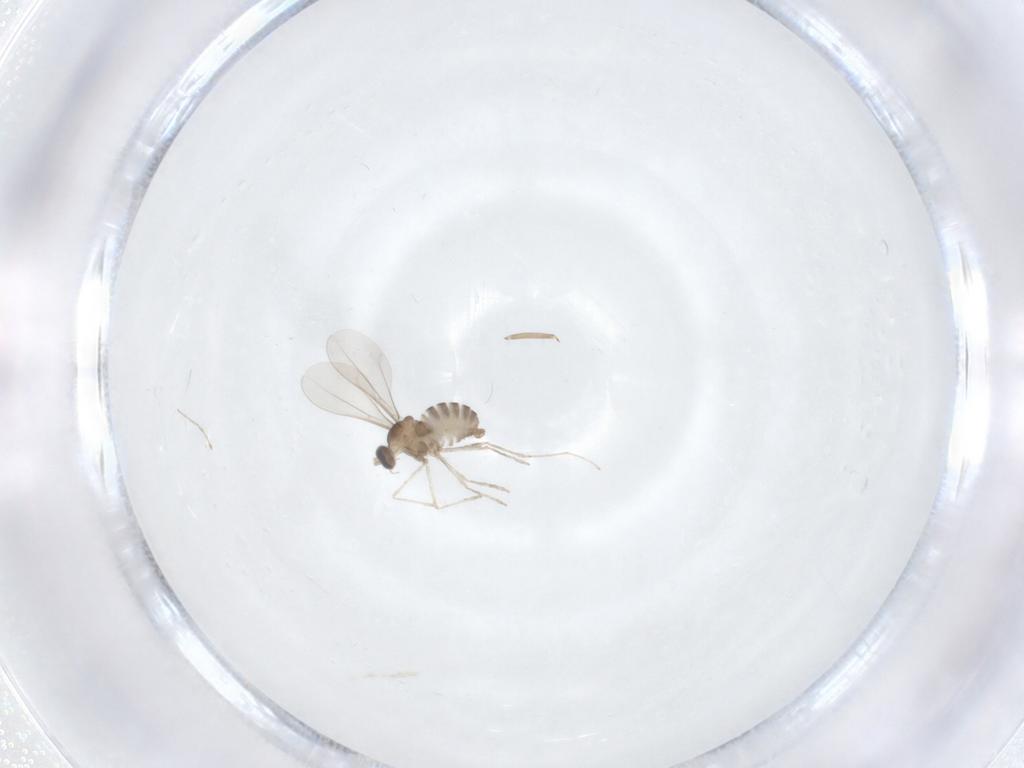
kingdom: Animalia
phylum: Arthropoda
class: Insecta
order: Diptera
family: Cecidomyiidae
